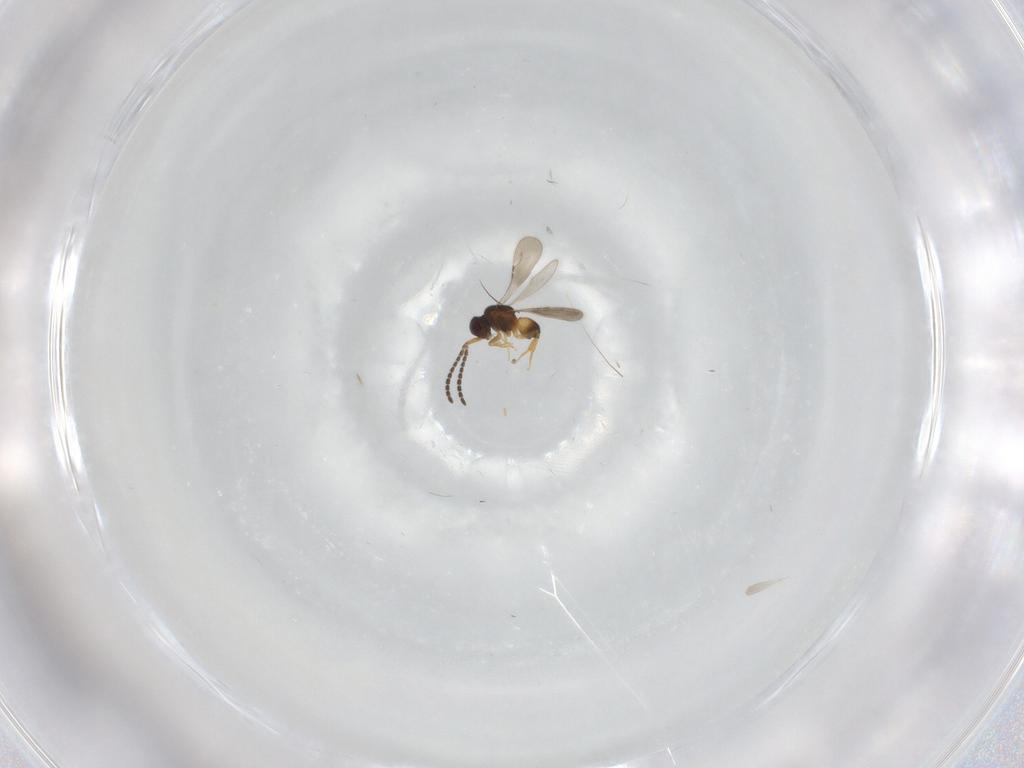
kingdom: Animalia
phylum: Arthropoda
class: Insecta
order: Hymenoptera
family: Ceraphronidae
